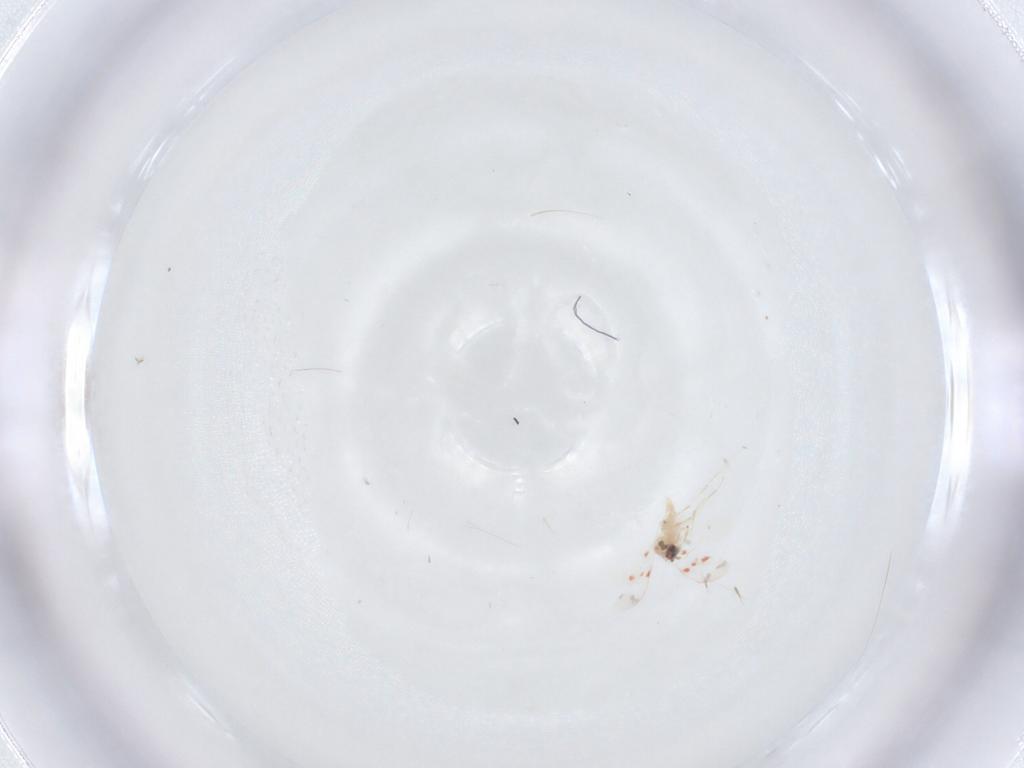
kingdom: Animalia
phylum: Arthropoda
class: Insecta
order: Hemiptera
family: Aleyrodidae
